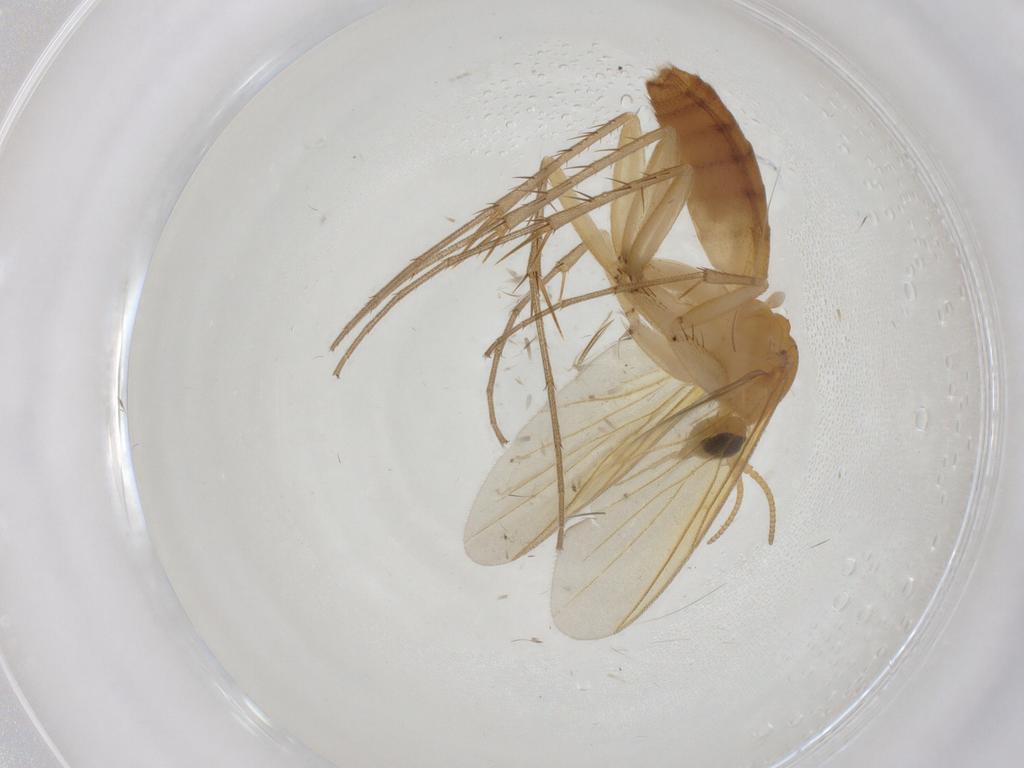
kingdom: Animalia
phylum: Arthropoda
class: Insecta
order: Diptera
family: Mycetophilidae
